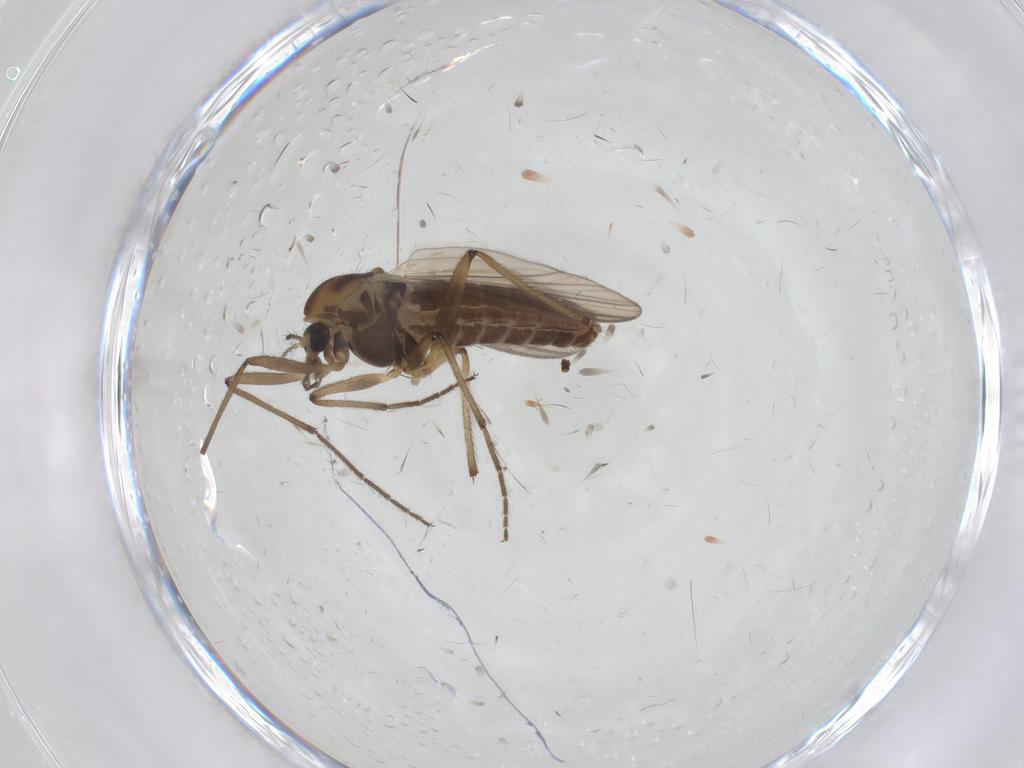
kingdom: Animalia
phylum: Arthropoda
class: Insecta
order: Diptera
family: Chironomidae
